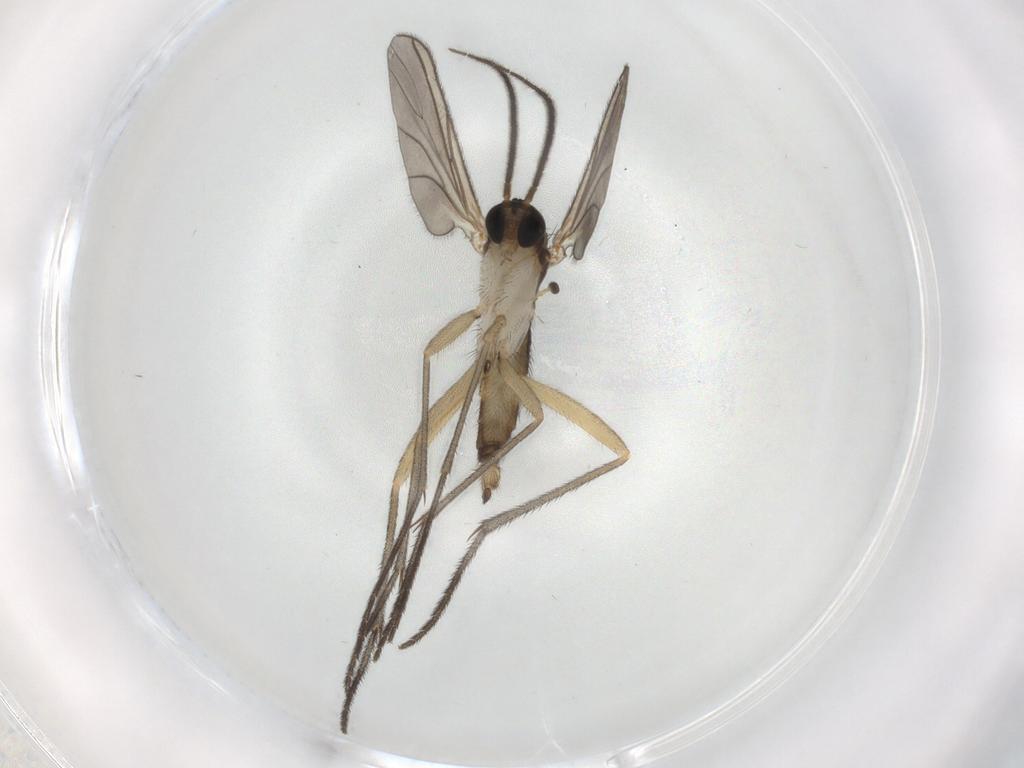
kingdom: Animalia
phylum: Arthropoda
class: Insecta
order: Diptera
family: Sciaridae
